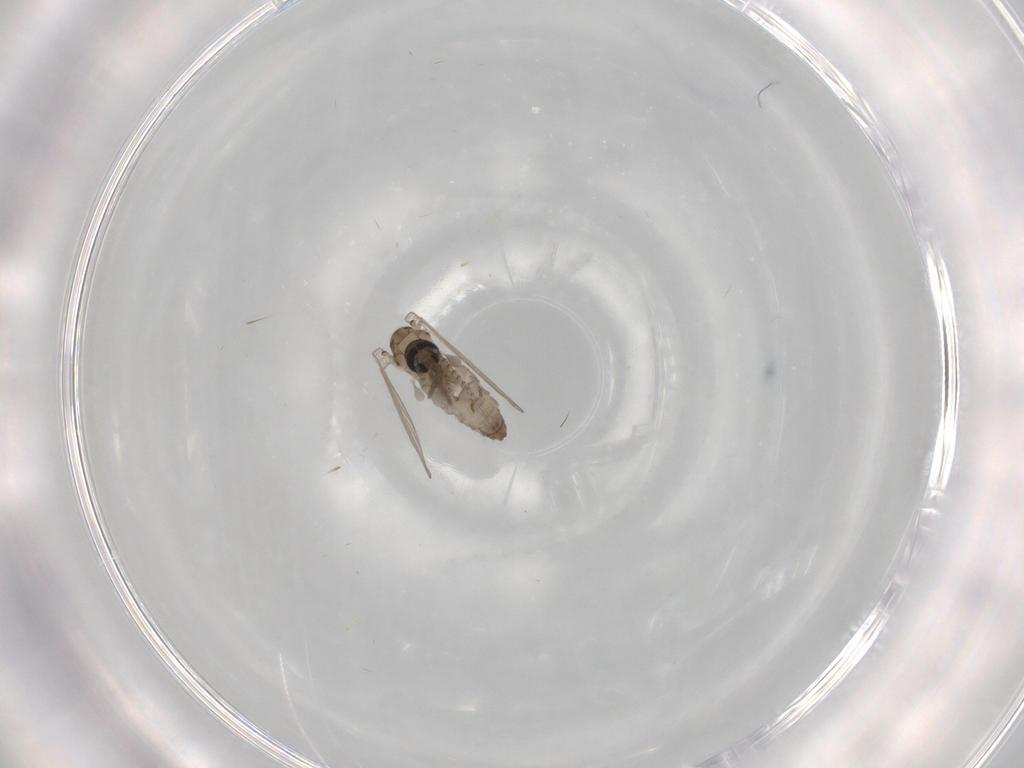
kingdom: Animalia
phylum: Arthropoda
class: Insecta
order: Diptera
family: Psychodidae
